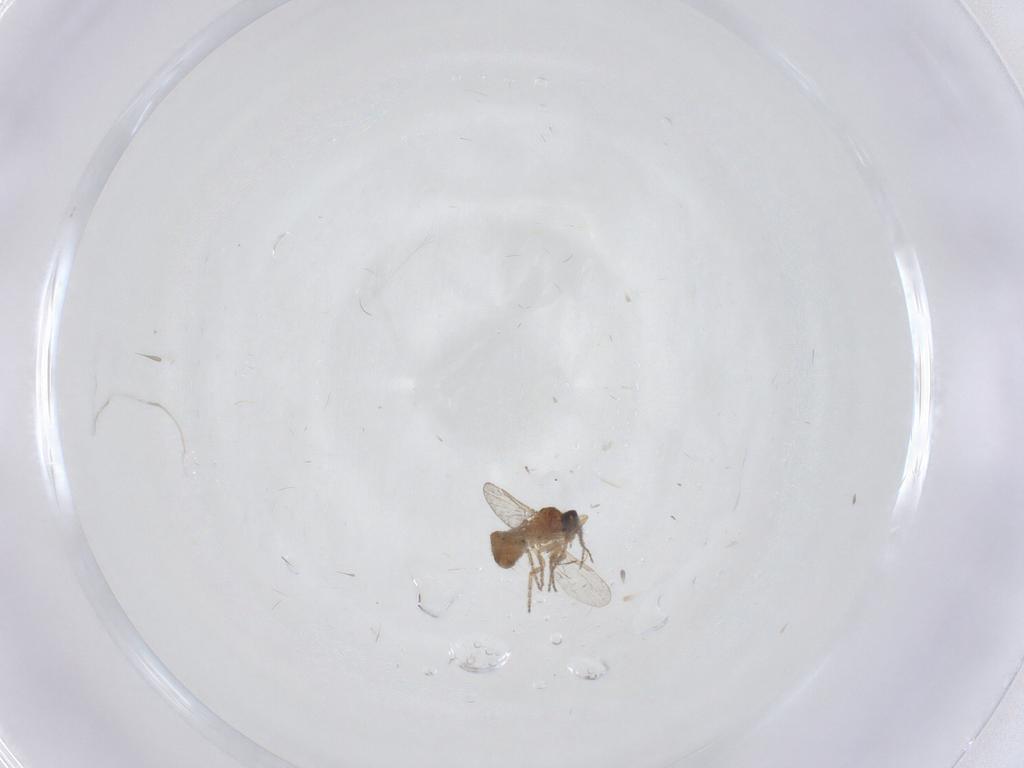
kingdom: Animalia
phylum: Arthropoda
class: Insecta
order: Diptera
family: Ceratopogonidae
